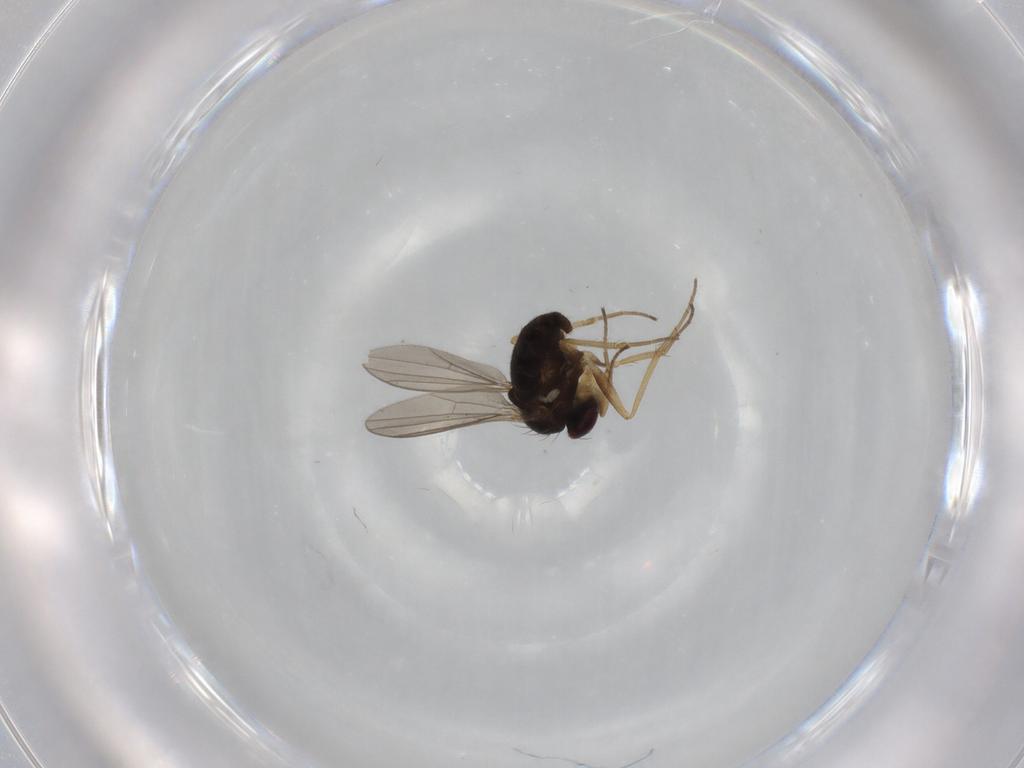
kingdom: Animalia
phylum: Arthropoda
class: Insecta
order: Diptera
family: Dolichopodidae
